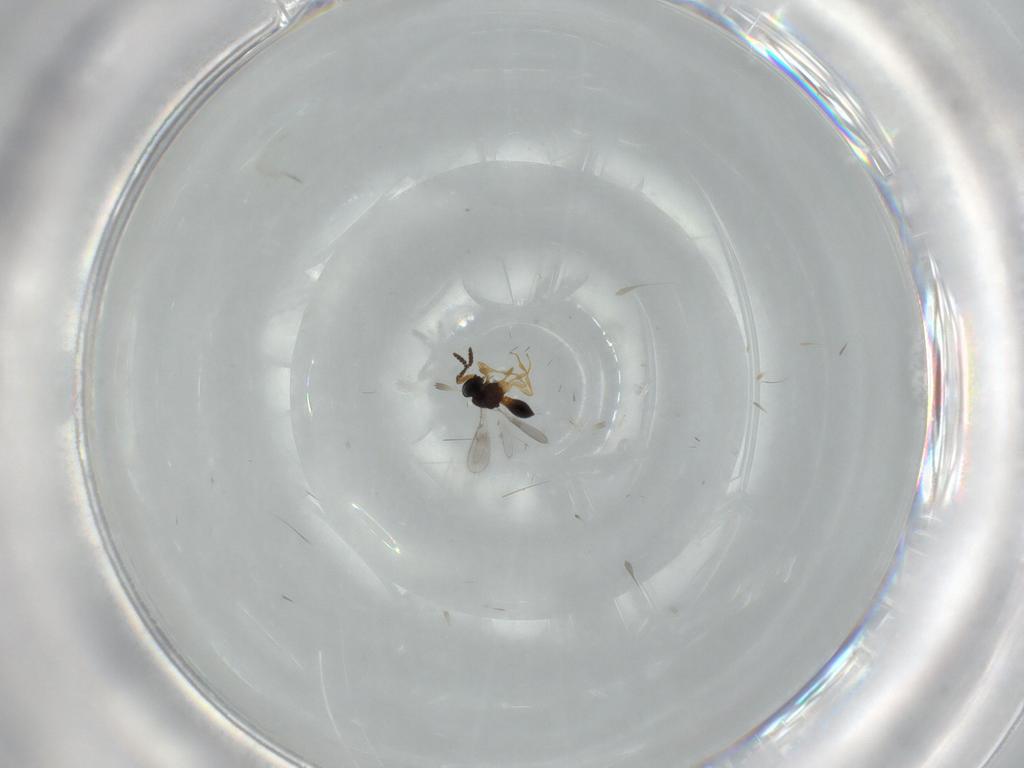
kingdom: Animalia
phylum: Arthropoda
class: Insecta
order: Hymenoptera
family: Scelionidae
